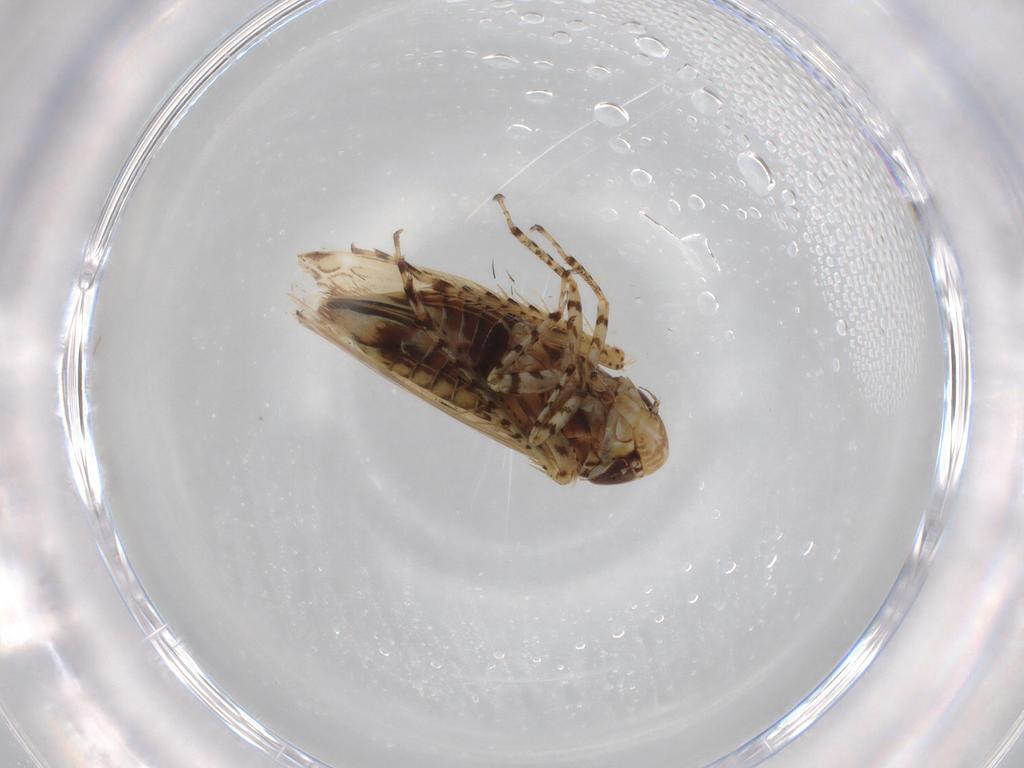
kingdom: Animalia
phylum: Arthropoda
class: Insecta
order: Hemiptera
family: Cicadellidae
